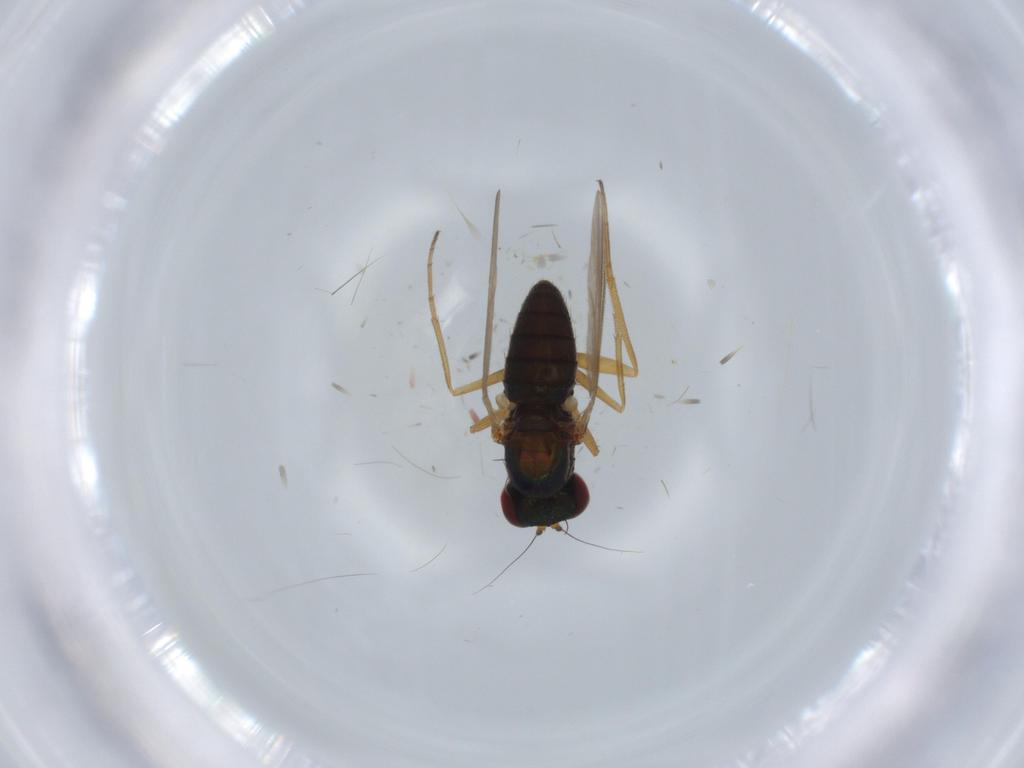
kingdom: Animalia
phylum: Arthropoda
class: Insecta
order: Diptera
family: Dolichopodidae
